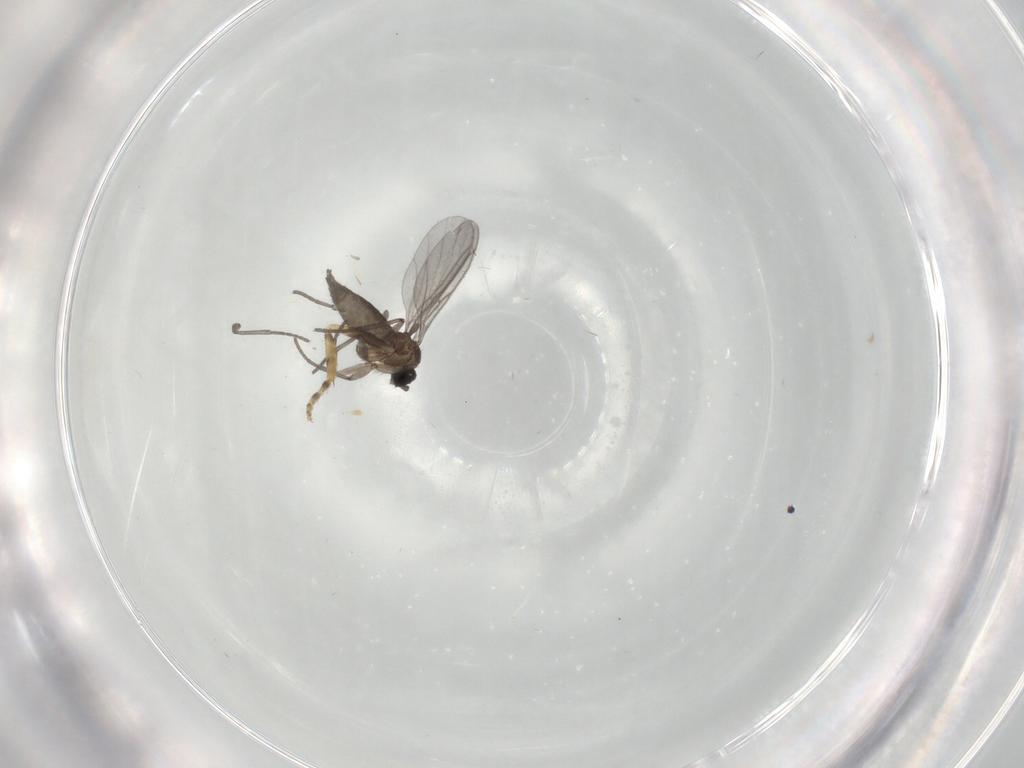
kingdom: Animalia
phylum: Arthropoda
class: Insecta
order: Diptera
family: Sciaridae
